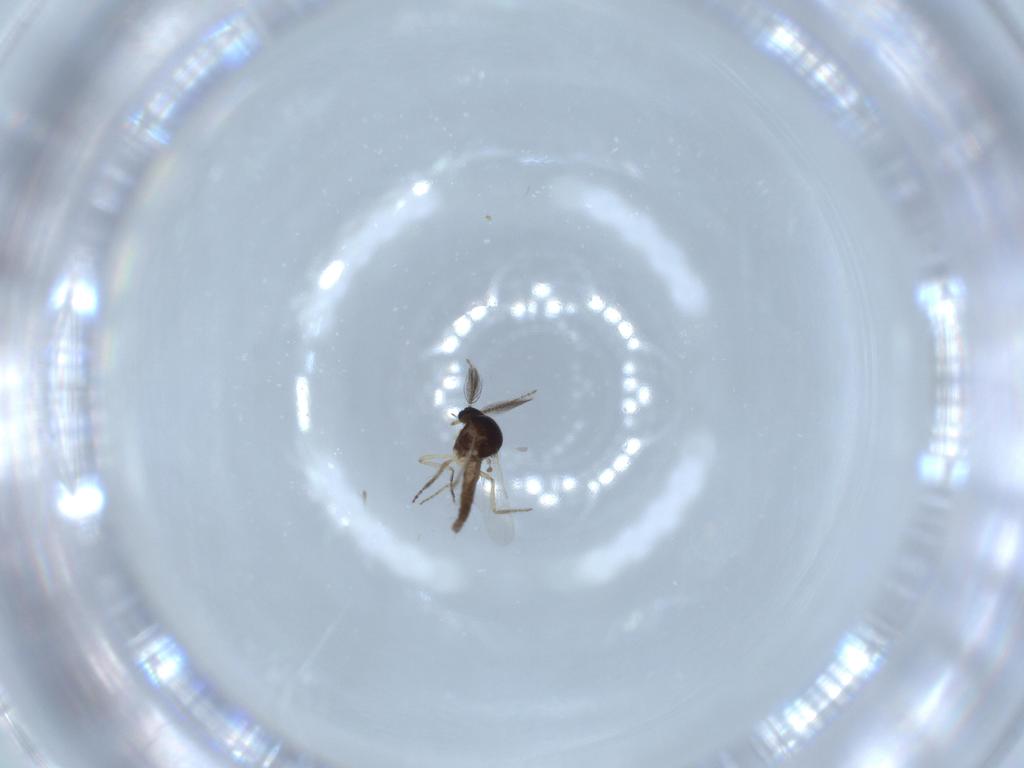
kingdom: Animalia
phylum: Arthropoda
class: Insecta
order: Diptera
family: Ceratopogonidae
